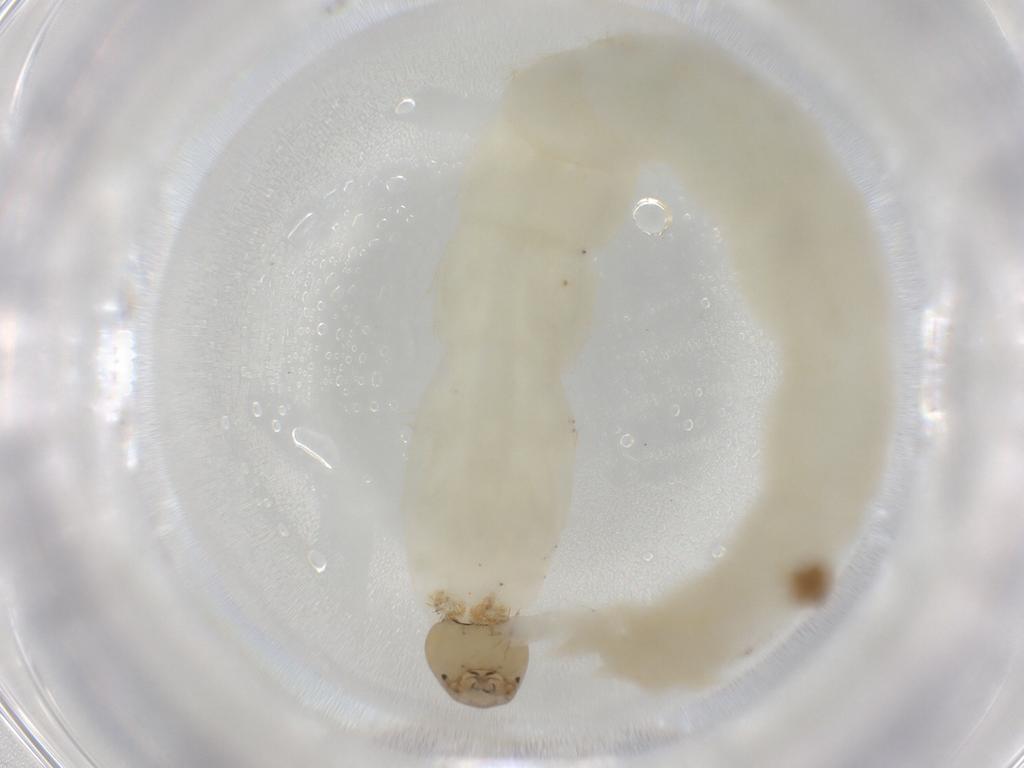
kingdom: Animalia
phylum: Arthropoda
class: Insecta
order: Diptera
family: Chironomidae
